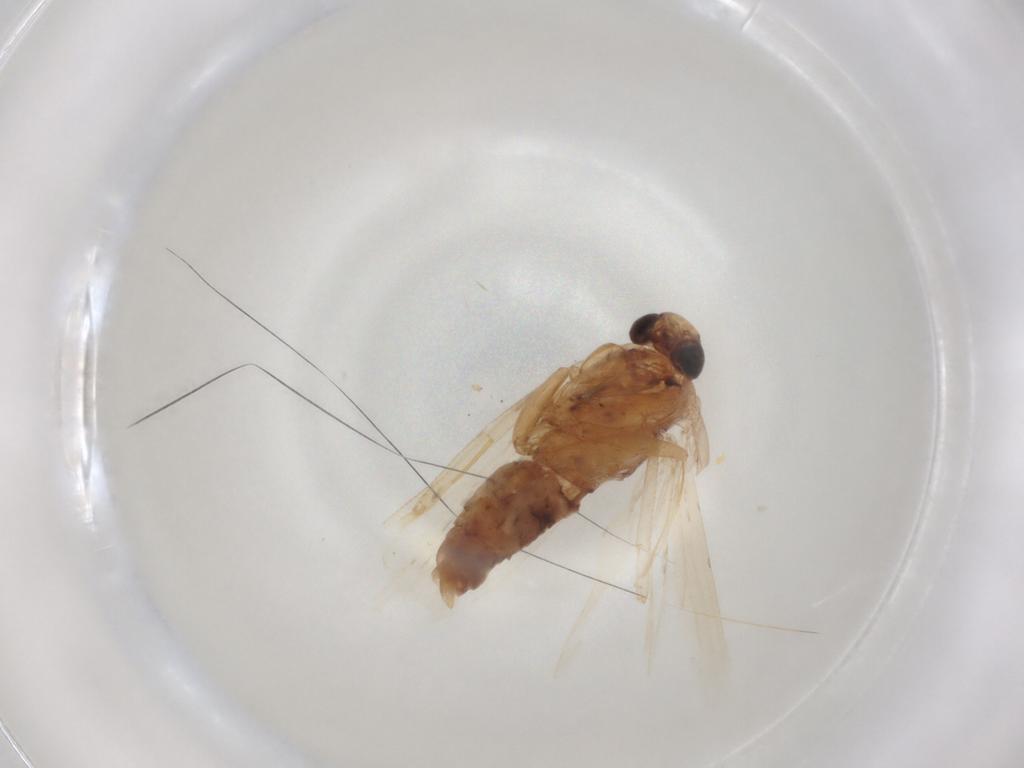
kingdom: Animalia
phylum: Arthropoda
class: Insecta
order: Lepidoptera
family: Gelechiidae
